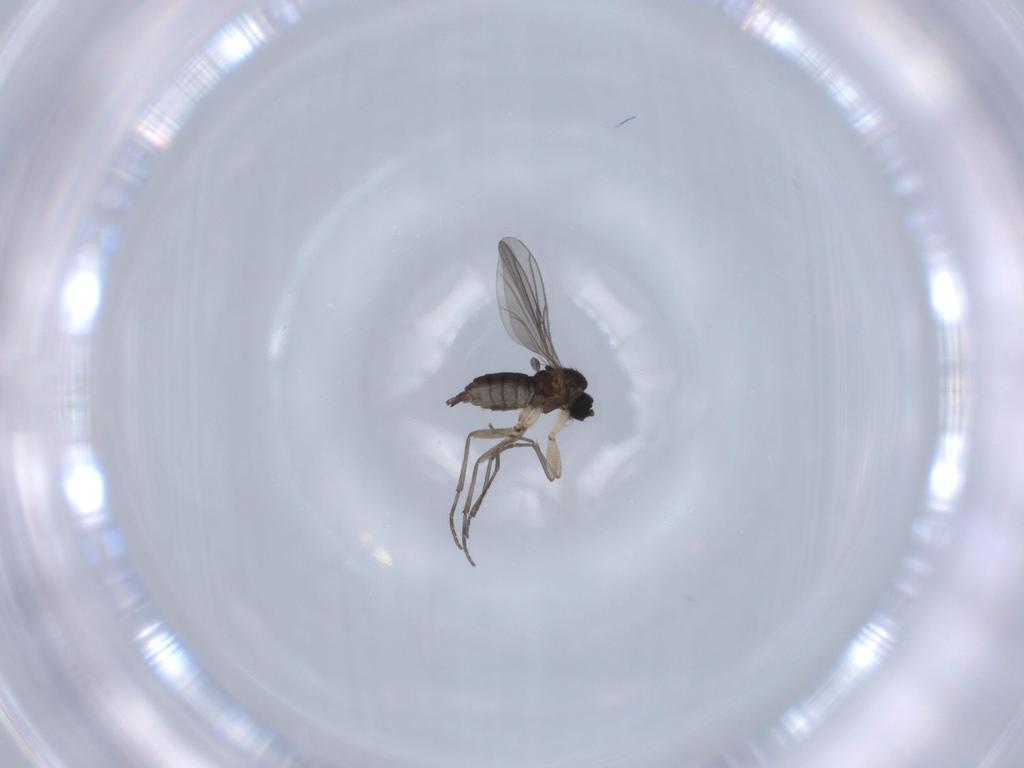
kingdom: Animalia
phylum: Arthropoda
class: Insecta
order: Diptera
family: Sciaridae
